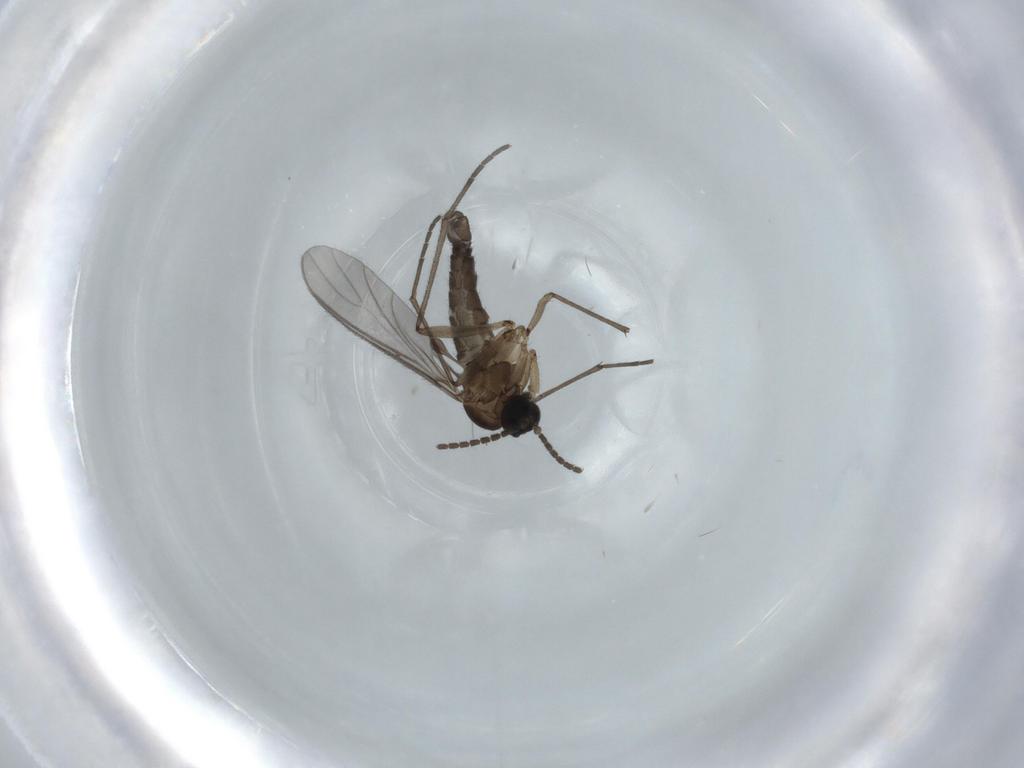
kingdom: Animalia
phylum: Arthropoda
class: Insecta
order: Diptera
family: Sciaridae
